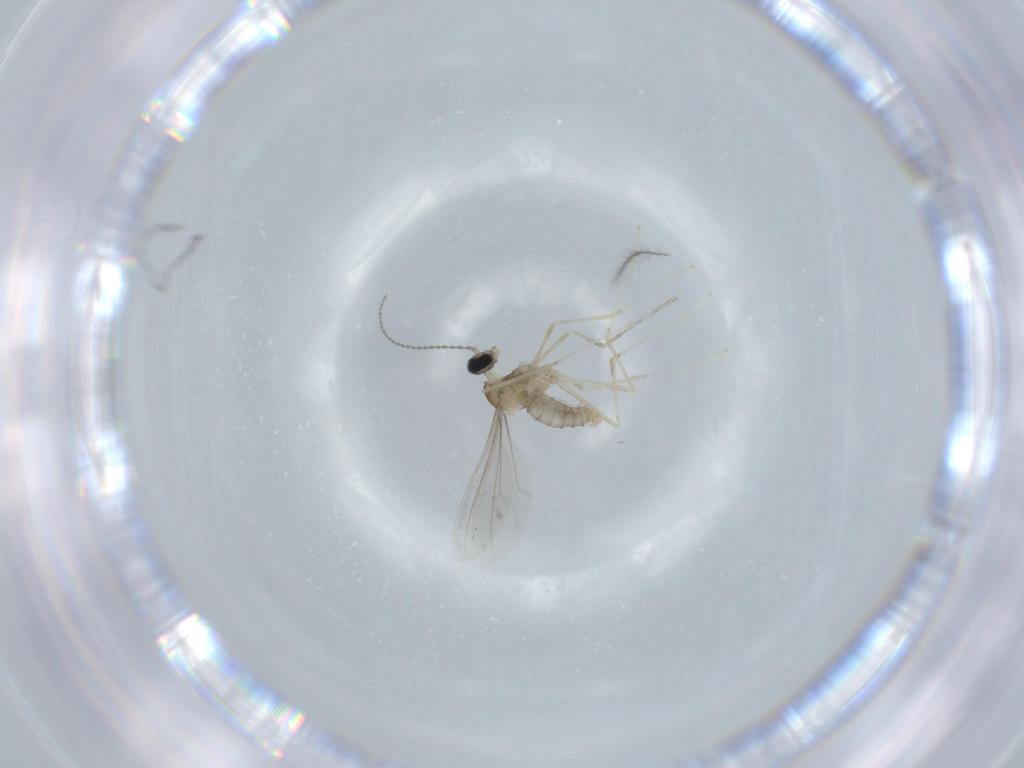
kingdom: Animalia
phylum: Arthropoda
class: Insecta
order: Diptera
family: Cecidomyiidae
